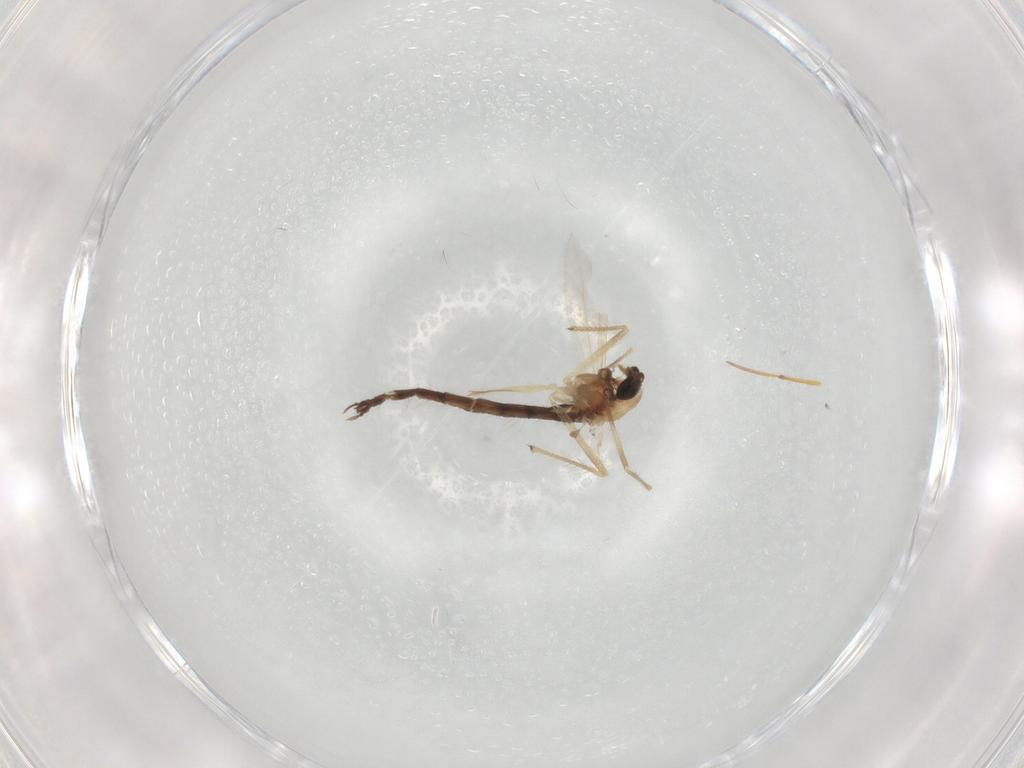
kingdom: Animalia
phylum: Arthropoda
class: Insecta
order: Diptera
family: Chironomidae
